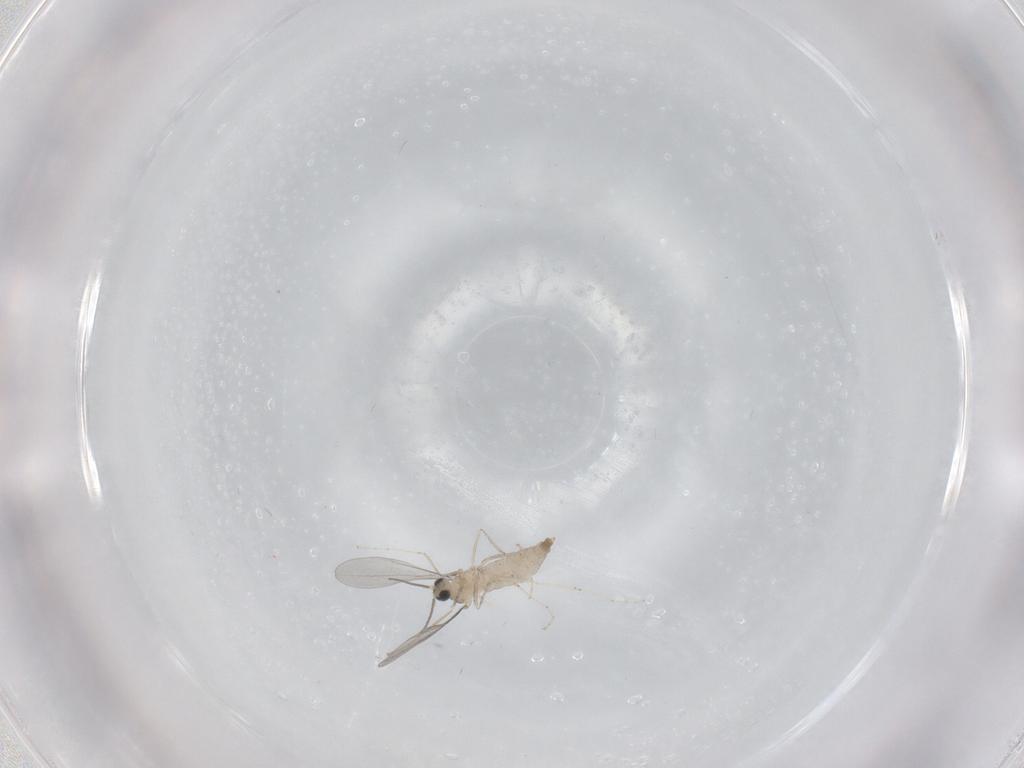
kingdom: Animalia
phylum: Arthropoda
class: Insecta
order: Diptera
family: Cecidomyiidae
